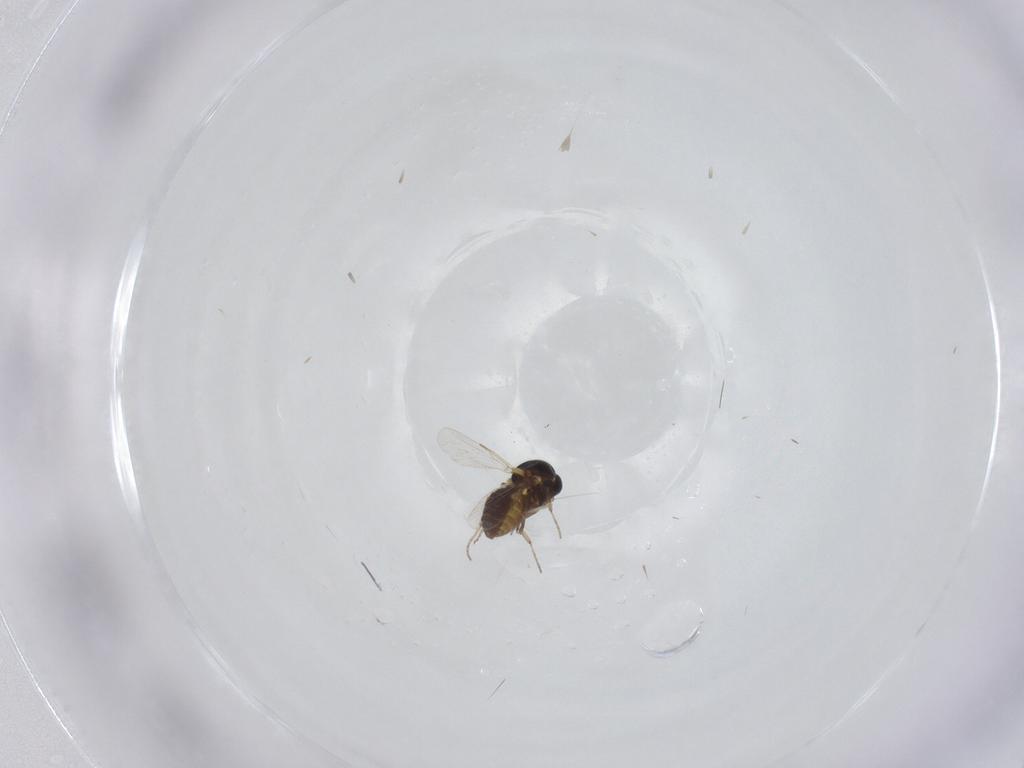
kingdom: Animalia
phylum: Arthropoda
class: Insecta
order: Diptera
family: Ceratopogonidae
